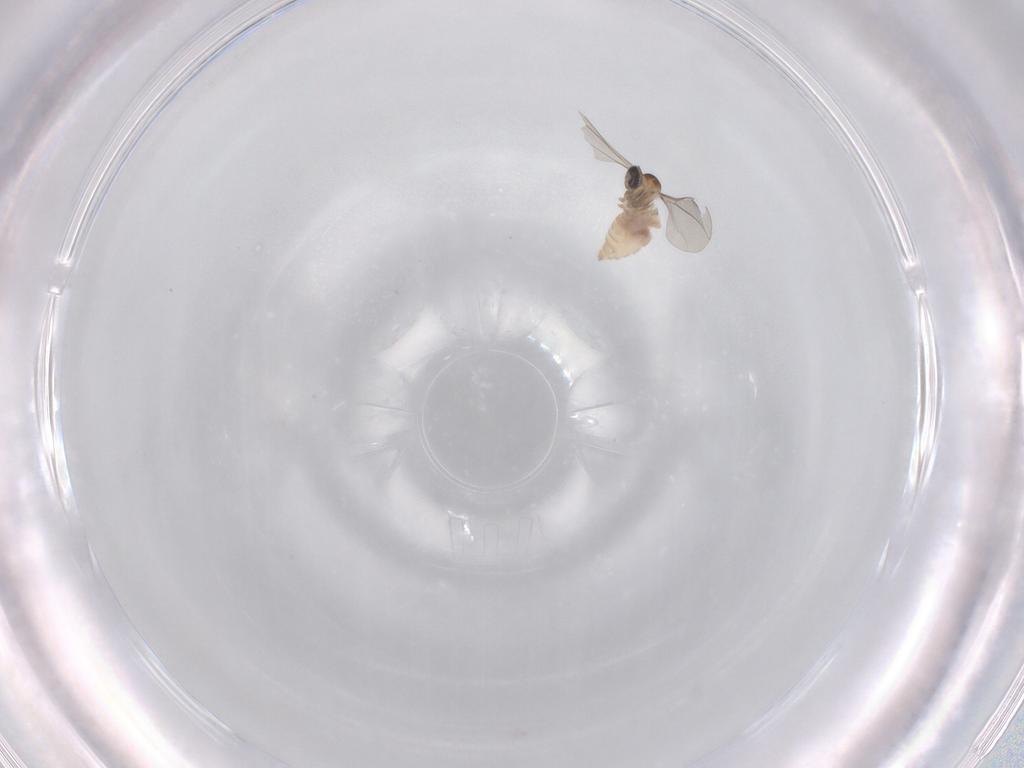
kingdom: Animalia
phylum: Arthropoda
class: Insecta
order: Diptera
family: Cecidomyiidae
